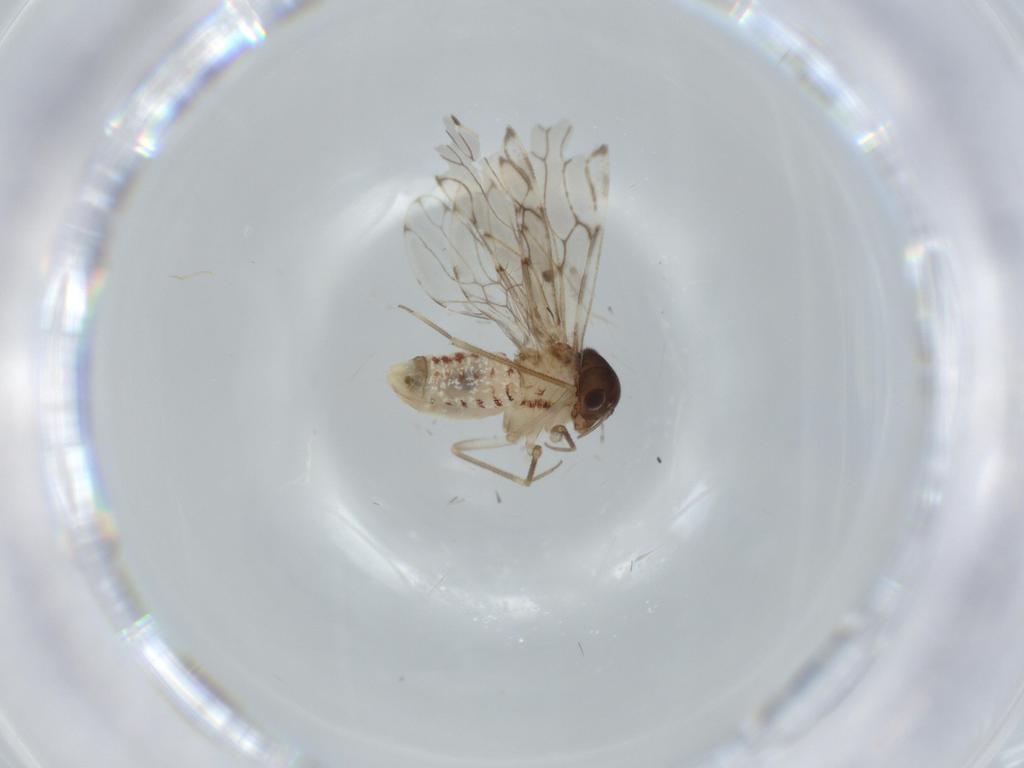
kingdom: Animalia
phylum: Arthropoda
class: Insecta
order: Psocodea
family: Epipsocidae
